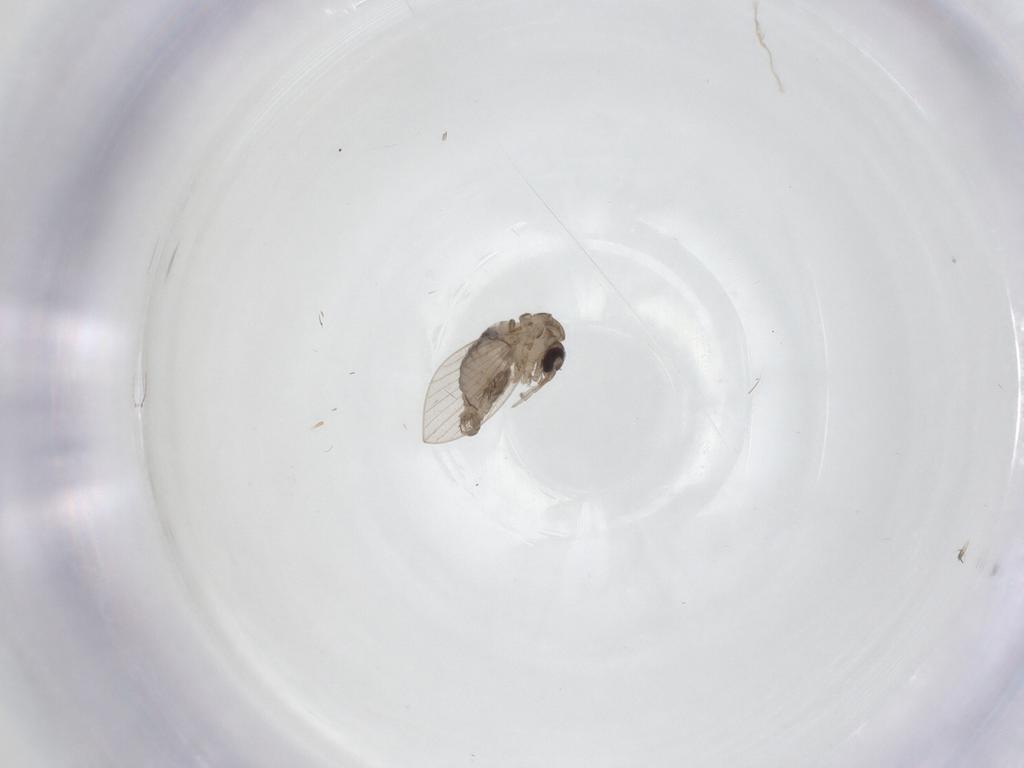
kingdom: Animalia
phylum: Arthropoda
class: Insecta
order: Diptera
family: Psychodidae
